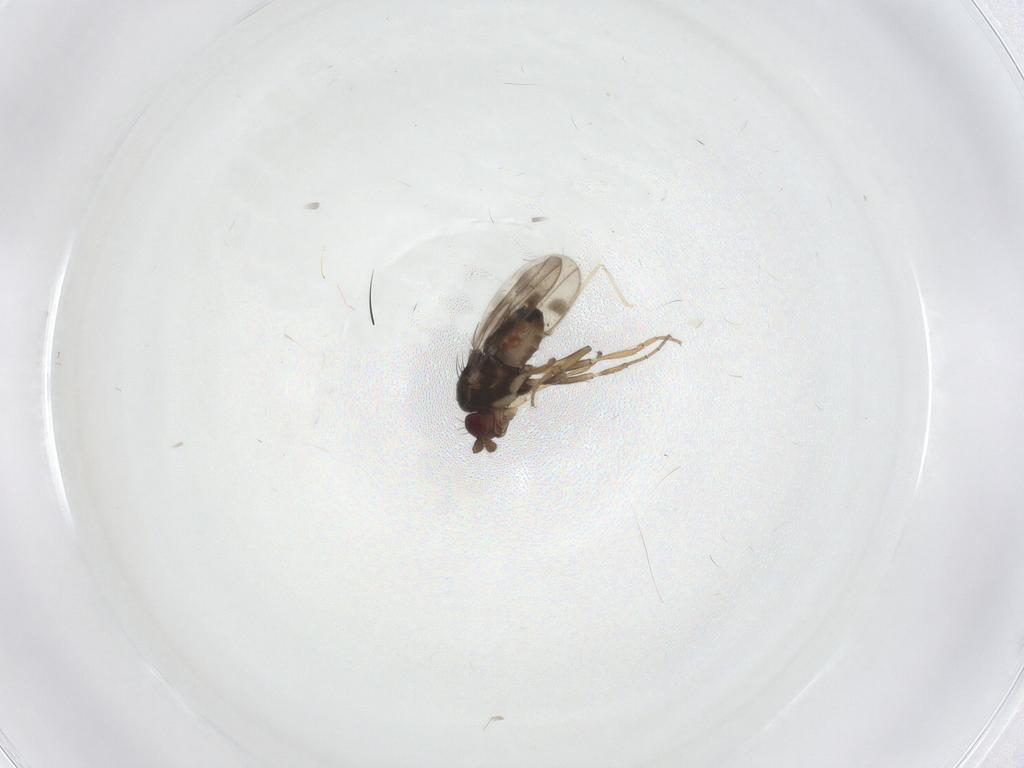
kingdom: Animalia
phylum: Arthropoda
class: Insecta
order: Diptera
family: Sphaeroceridae
